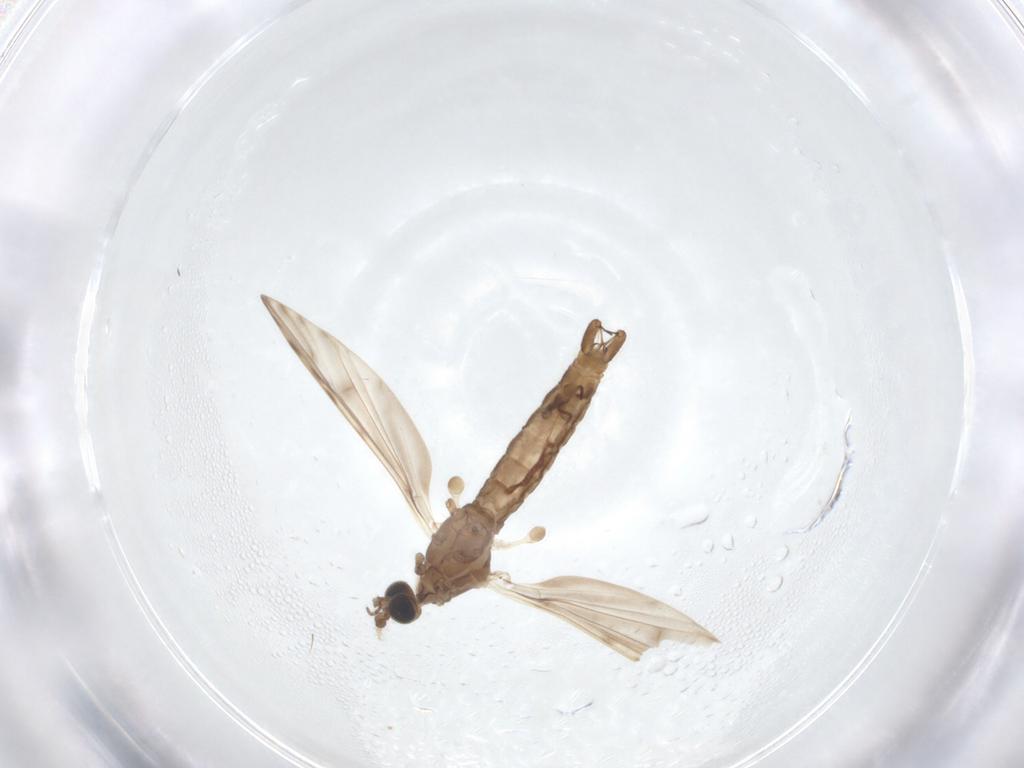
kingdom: Animalia
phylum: Arthropoda
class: Insecta
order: Diptera
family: Limoniidae
